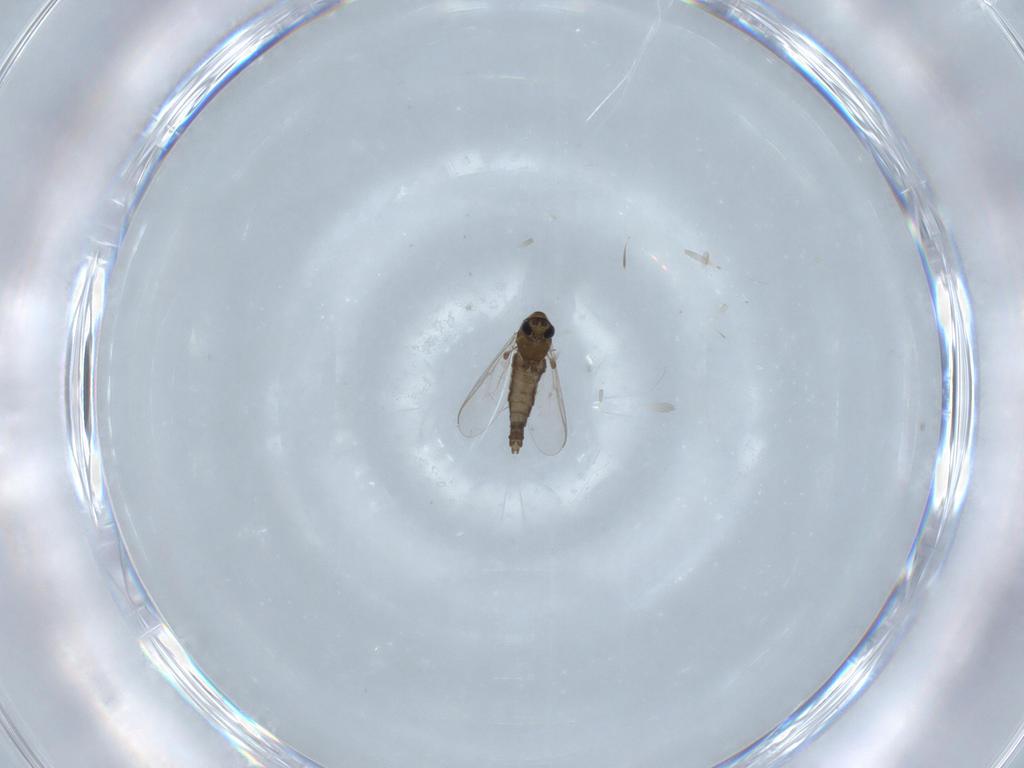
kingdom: Animalia
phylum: Arthropoda
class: Insecta
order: Diptera
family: Chironomidae
